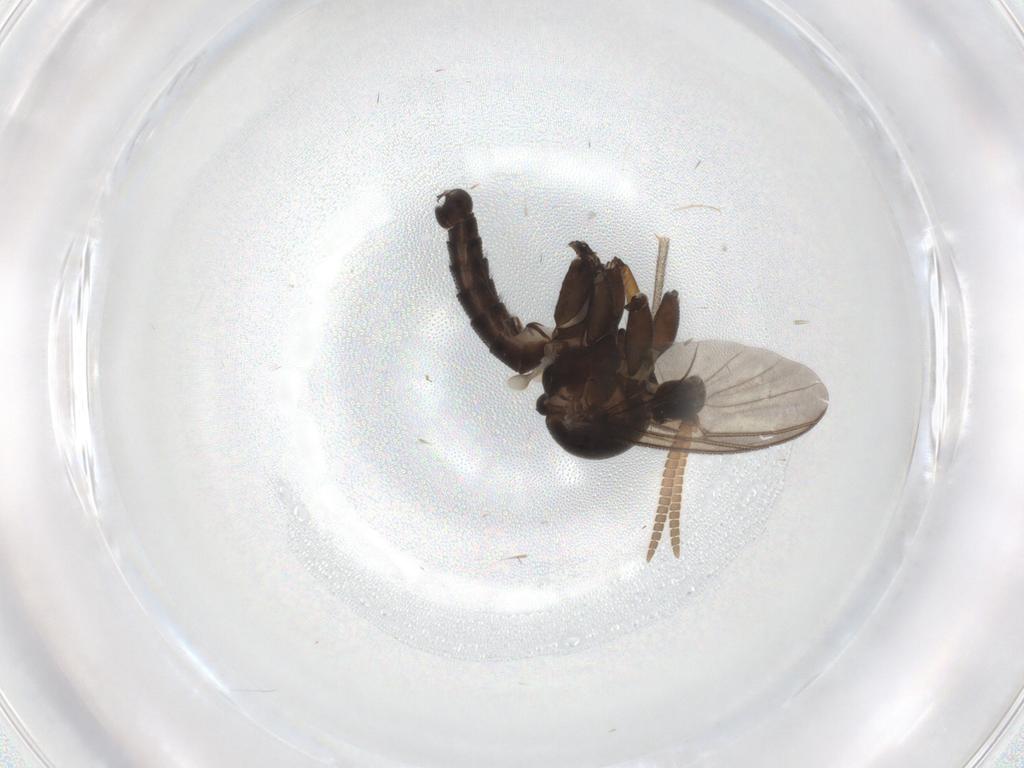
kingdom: Animalia
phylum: Arthropoda
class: Insecta
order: Diptera
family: Mycetophilidae
